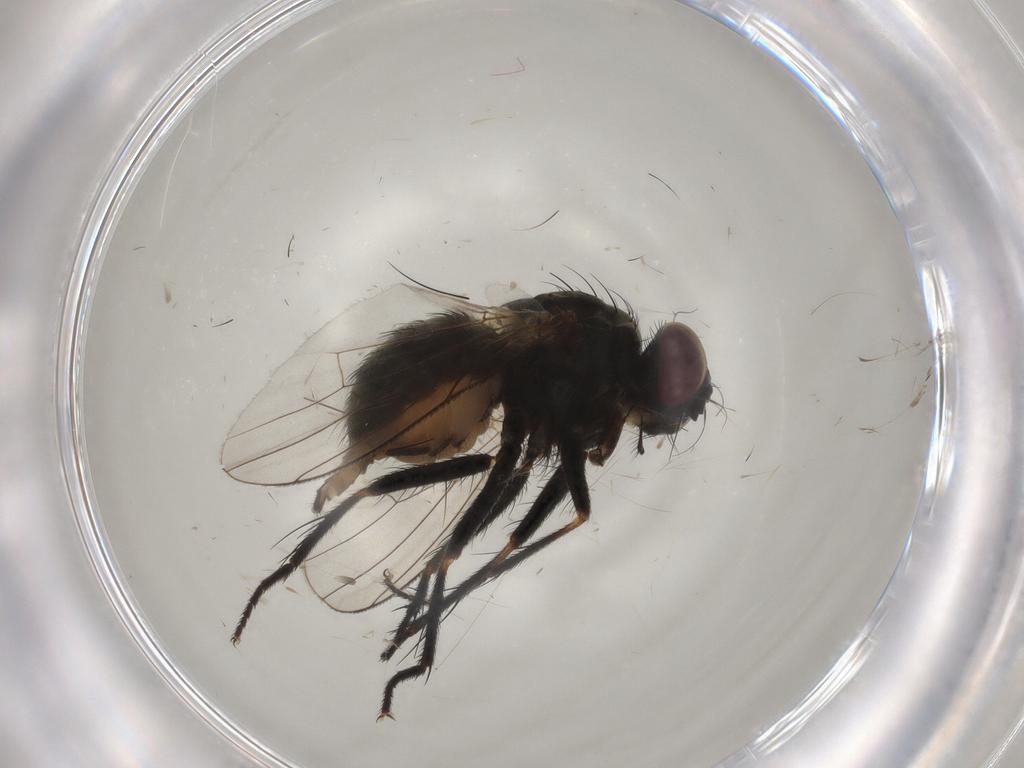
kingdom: Animalia
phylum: Arthropoda
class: Insecta
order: Diptera
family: Muscidae
